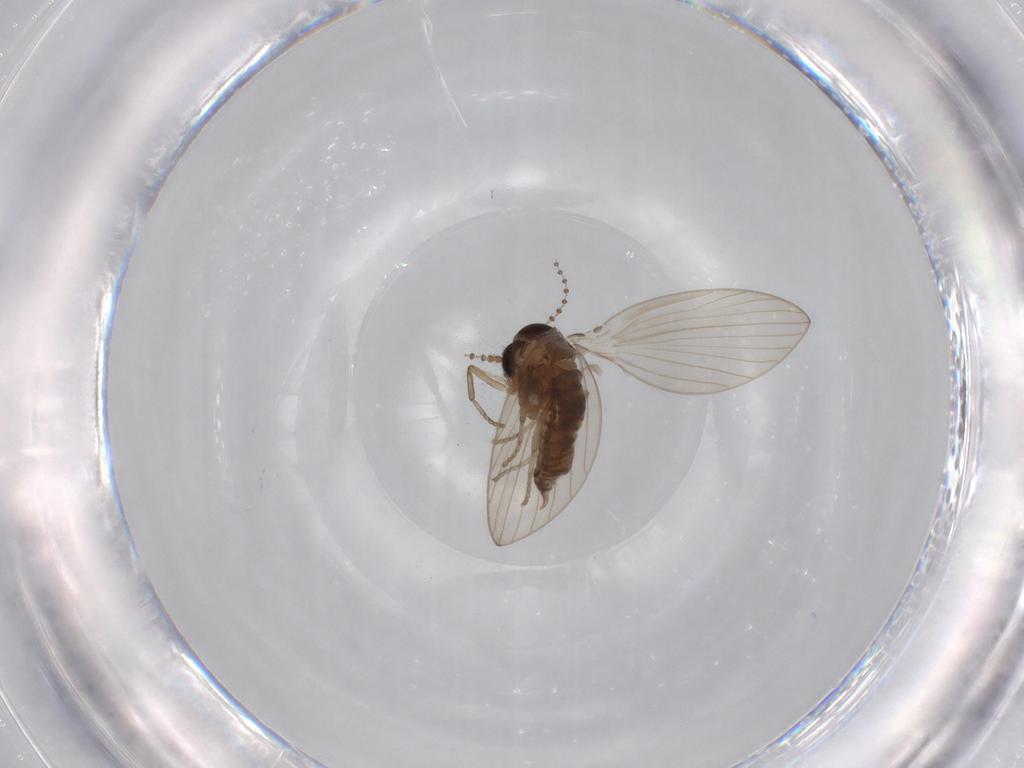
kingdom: Animalia
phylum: Arthropoda
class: Insecta
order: Diptera
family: Psychodidae
